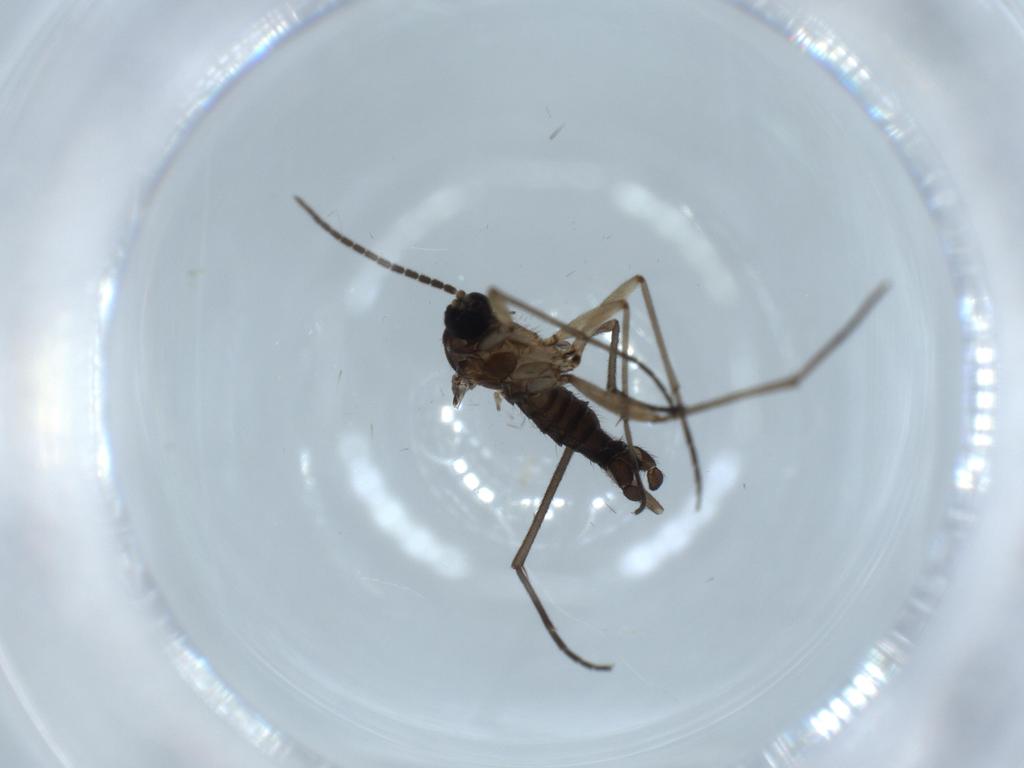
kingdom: Animalia
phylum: Arthropoda
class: Insecta
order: Diptera
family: Sciaridae
